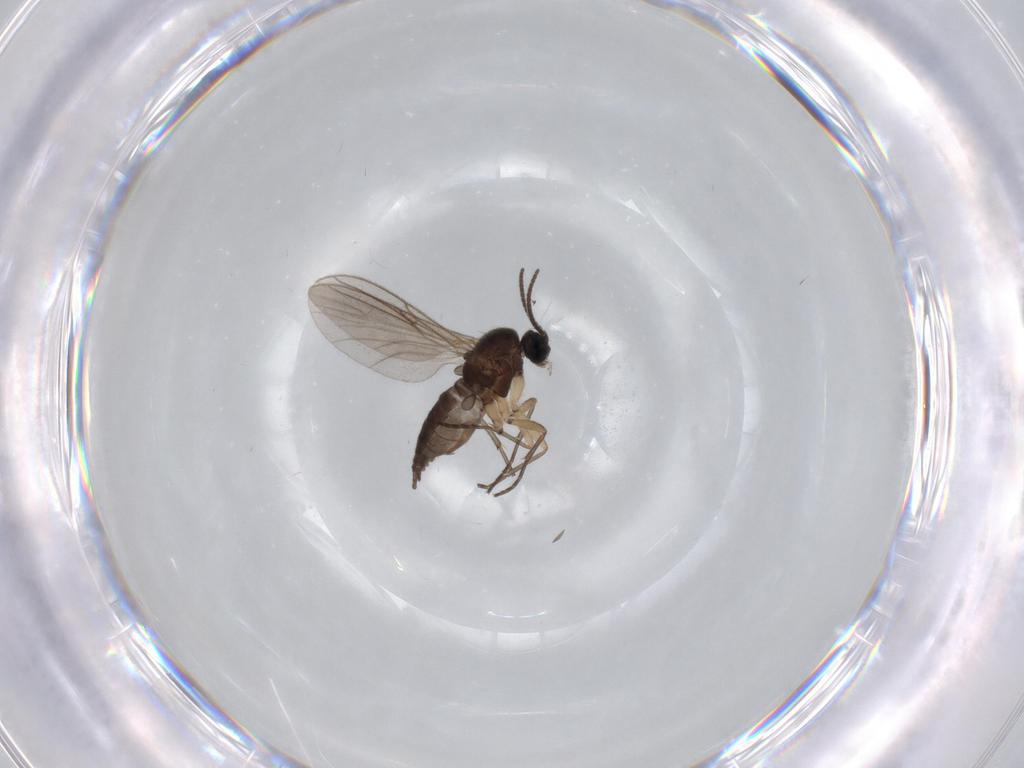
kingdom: Animalia
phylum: Arthropoda
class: Insecta
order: Diptera
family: Sciaridae
